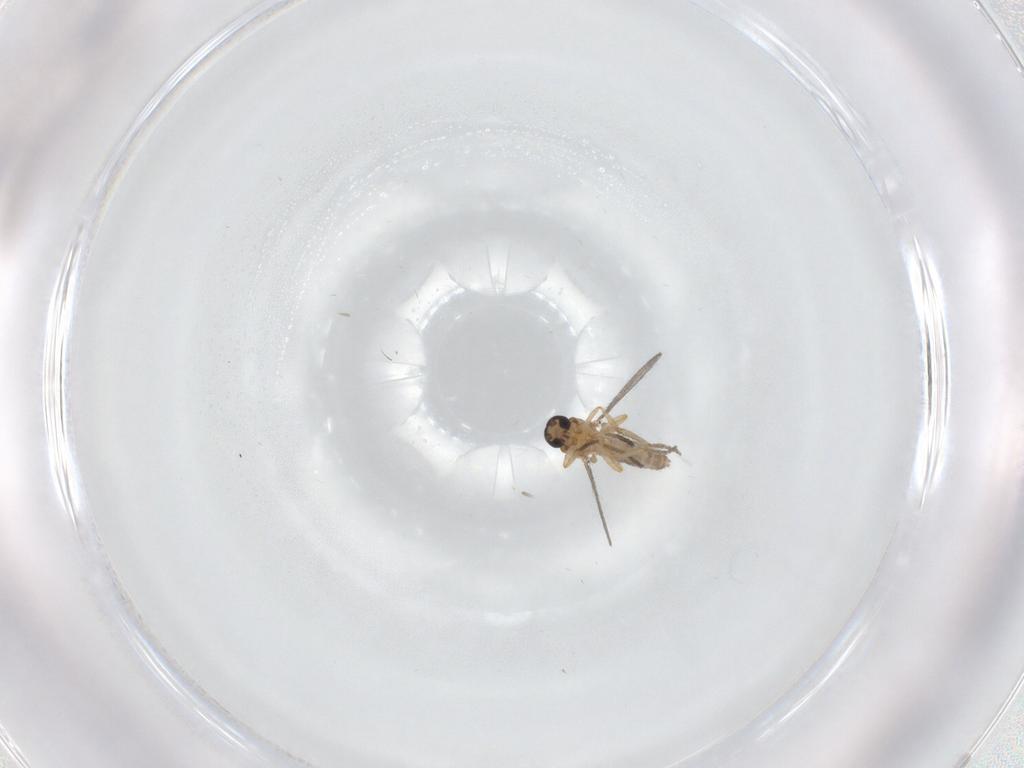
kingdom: Animalia
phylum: Arthropoda
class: Insecta
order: Diptera
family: Ceratopogonidae
